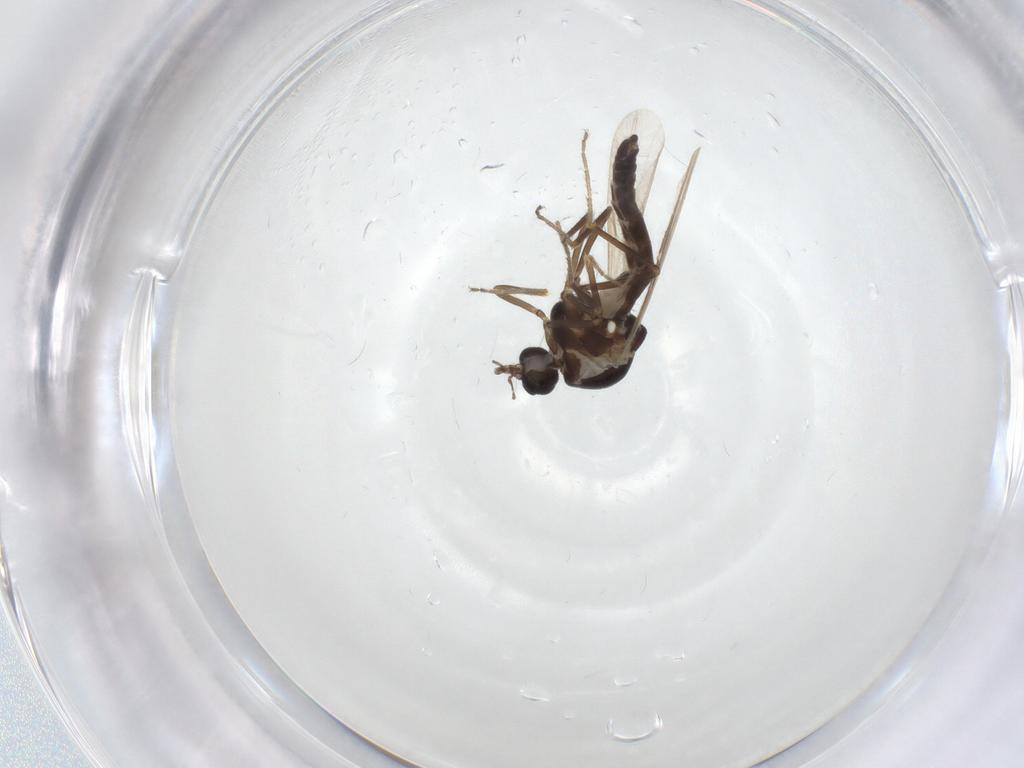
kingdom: Animalia
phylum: Arthropoda
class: Insecta
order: Diptera
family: Ceratopogonidae
